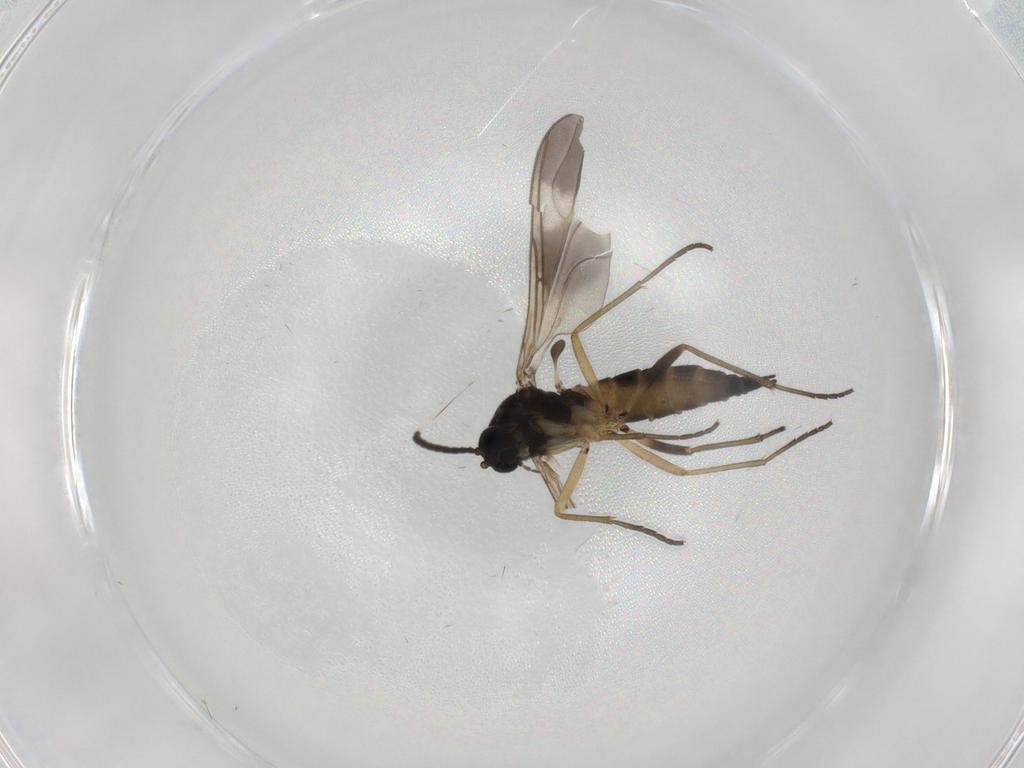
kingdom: Animalia
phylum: Arthropoda
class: Insecta
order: Diptera
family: Sciaridae
